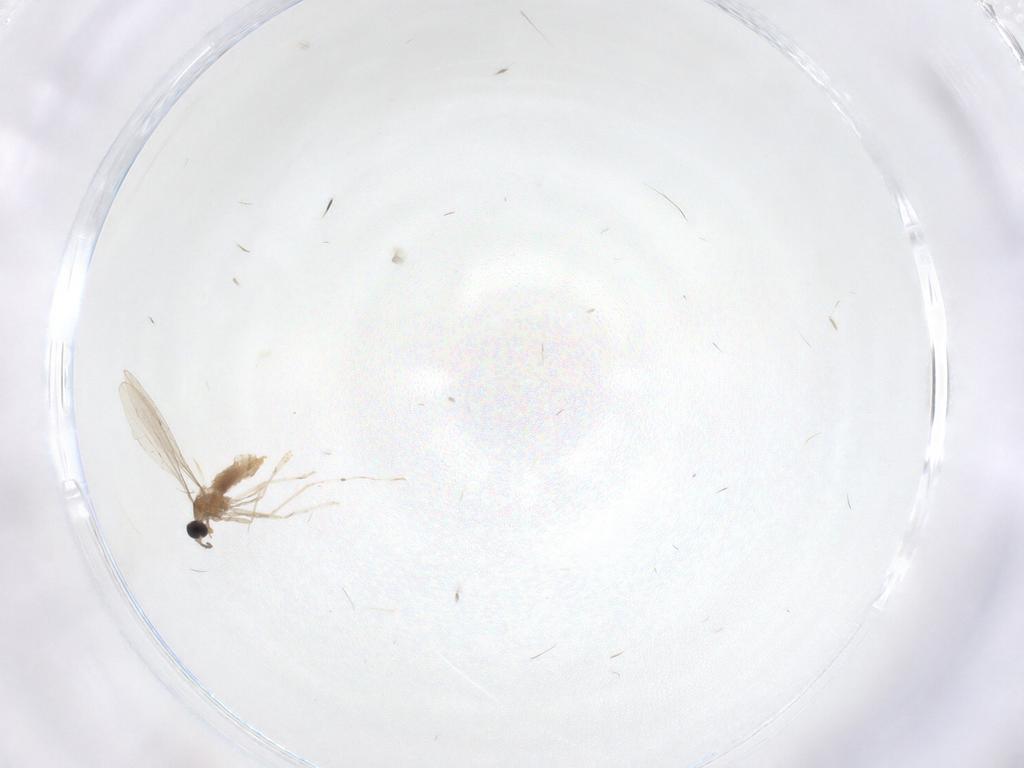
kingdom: Animalia
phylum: Arthropoda
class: Insecta
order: Diptera
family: Cecidomyiidae
